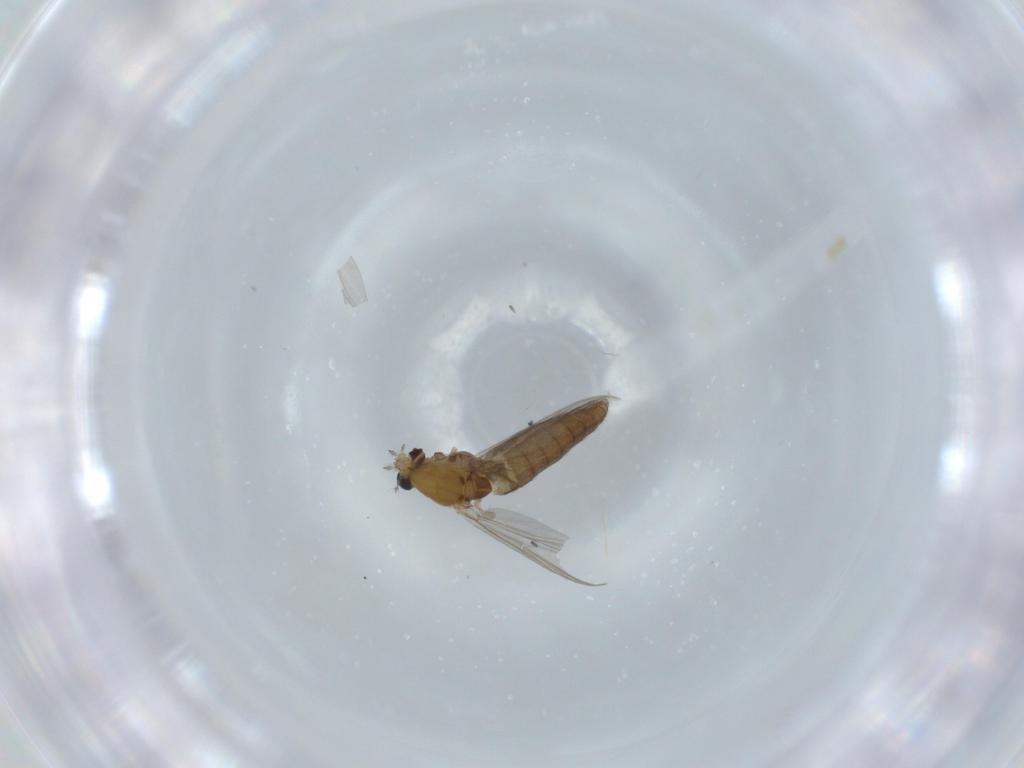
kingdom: Animalia
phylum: Arthropoda
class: Insecta
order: Diptera
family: Chironomidae
